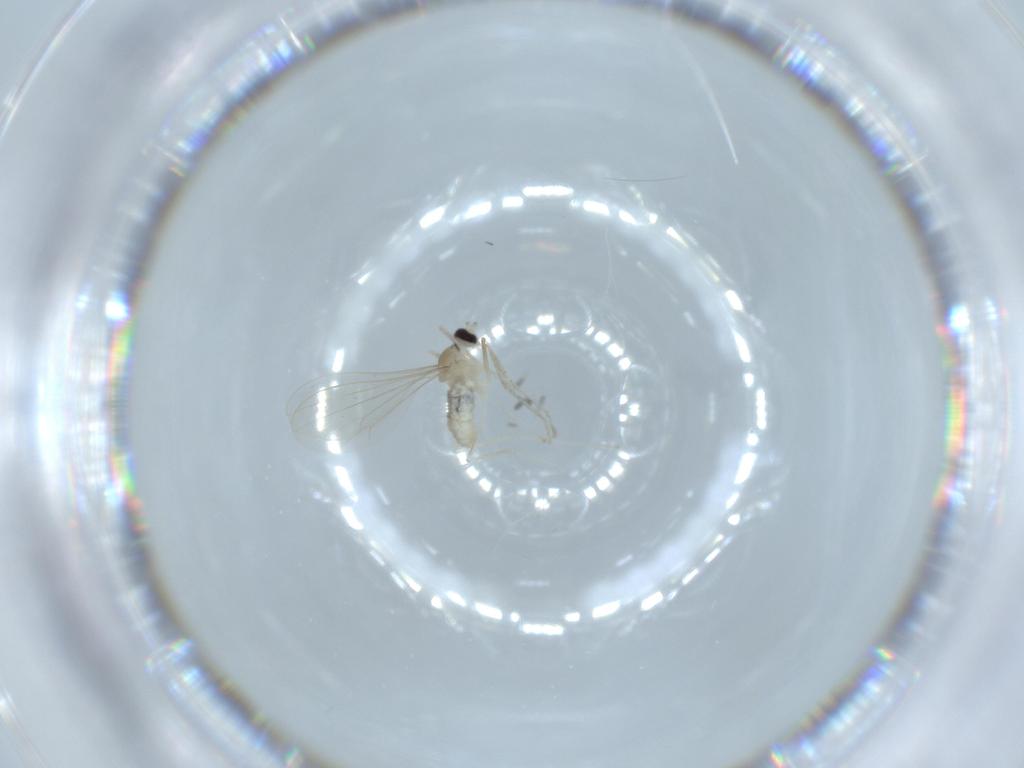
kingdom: Animalia
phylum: Arthropoda
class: Insecta
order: Diptera
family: Cecidomyiidae
